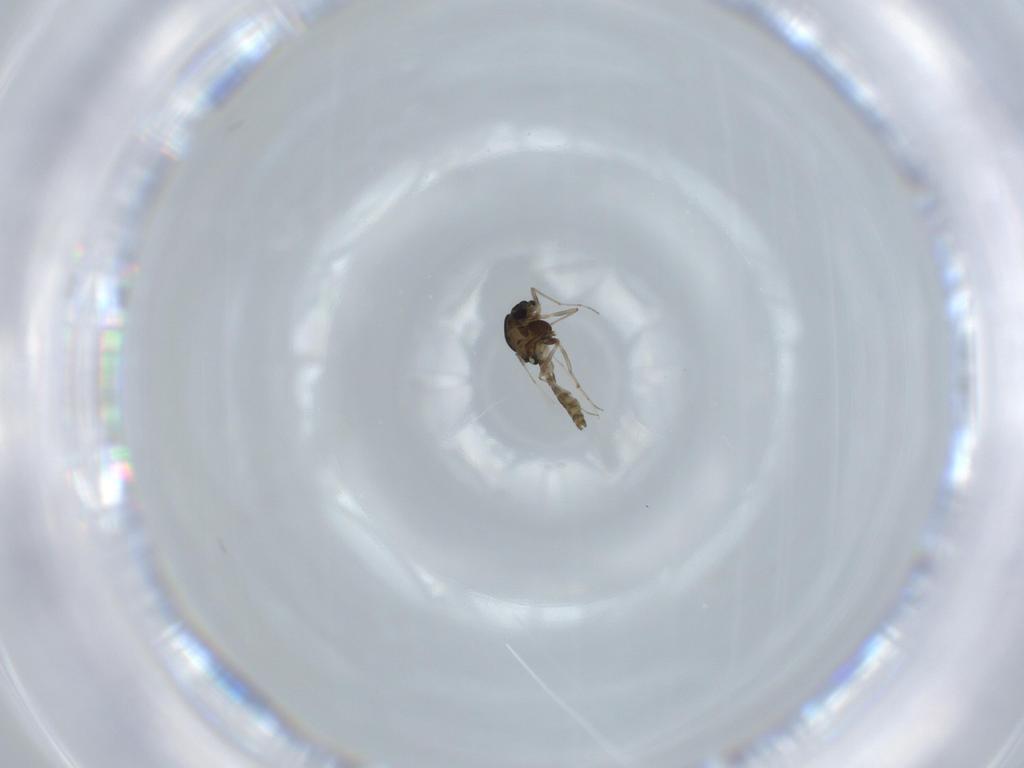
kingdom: Animalia
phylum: Arthropoda
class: Insecta
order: Diptera
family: Chironomidae
